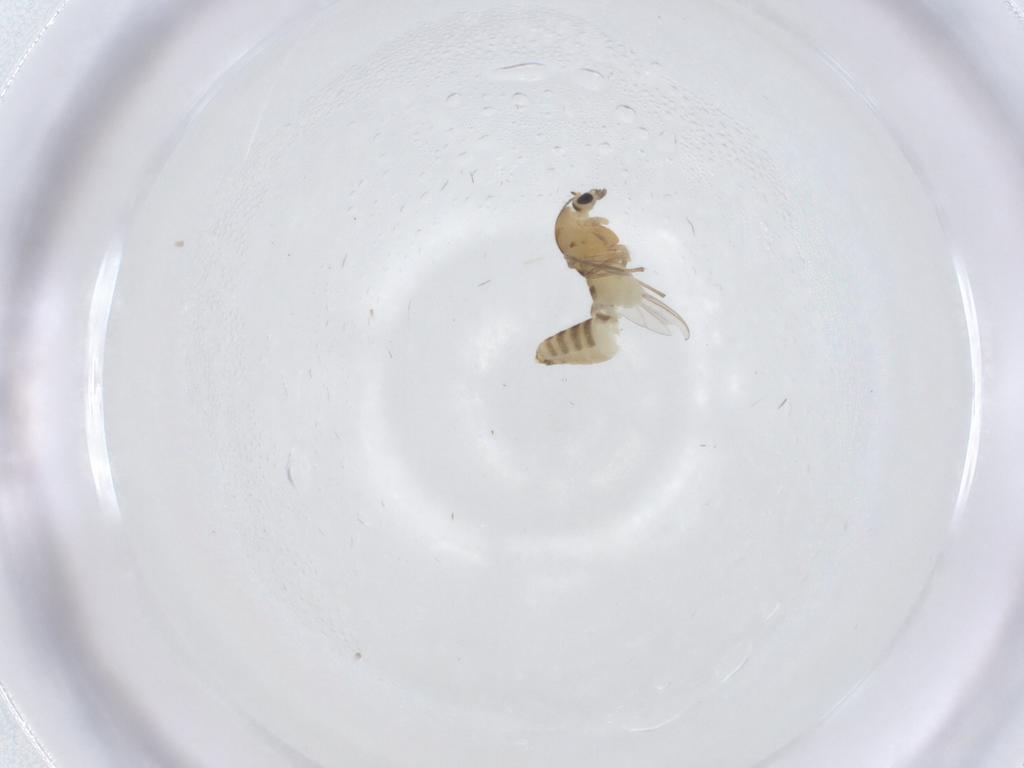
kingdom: Animalia
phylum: Arthropoda
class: Insecta
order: Diptera
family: Chironomidae
